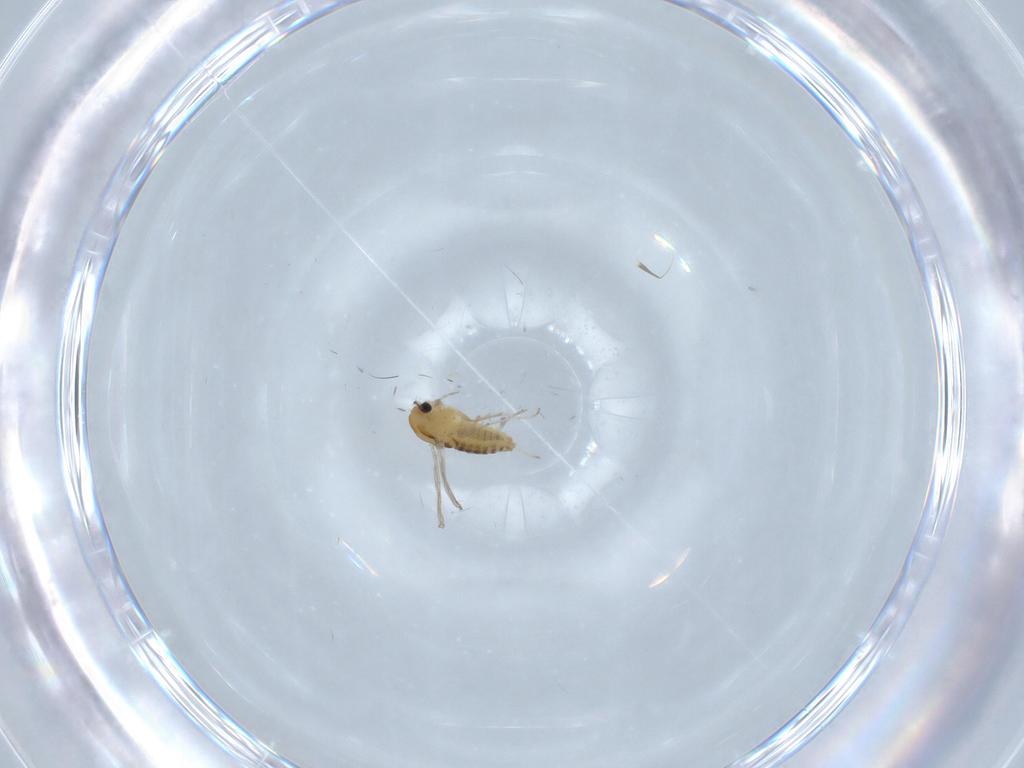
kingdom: Animalia
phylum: Arthropoda
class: Insecta
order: Diptera
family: Chironomidae
